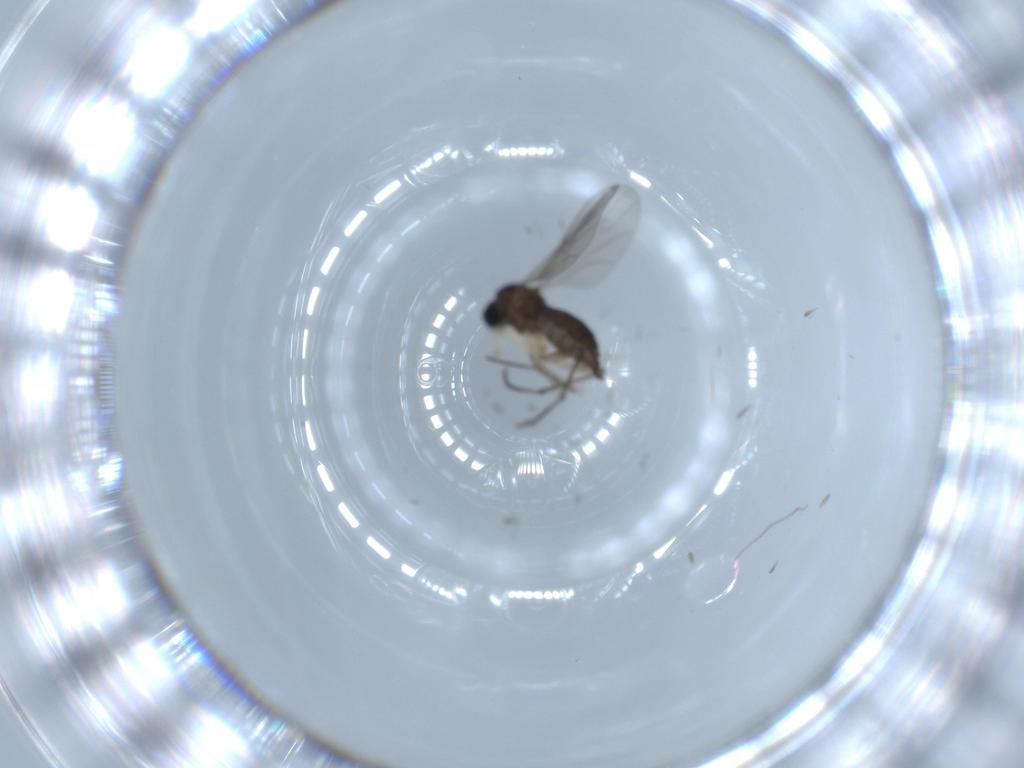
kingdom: Animalia
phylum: Arthropoda
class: Insecta
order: Diptera
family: Sciaridae
